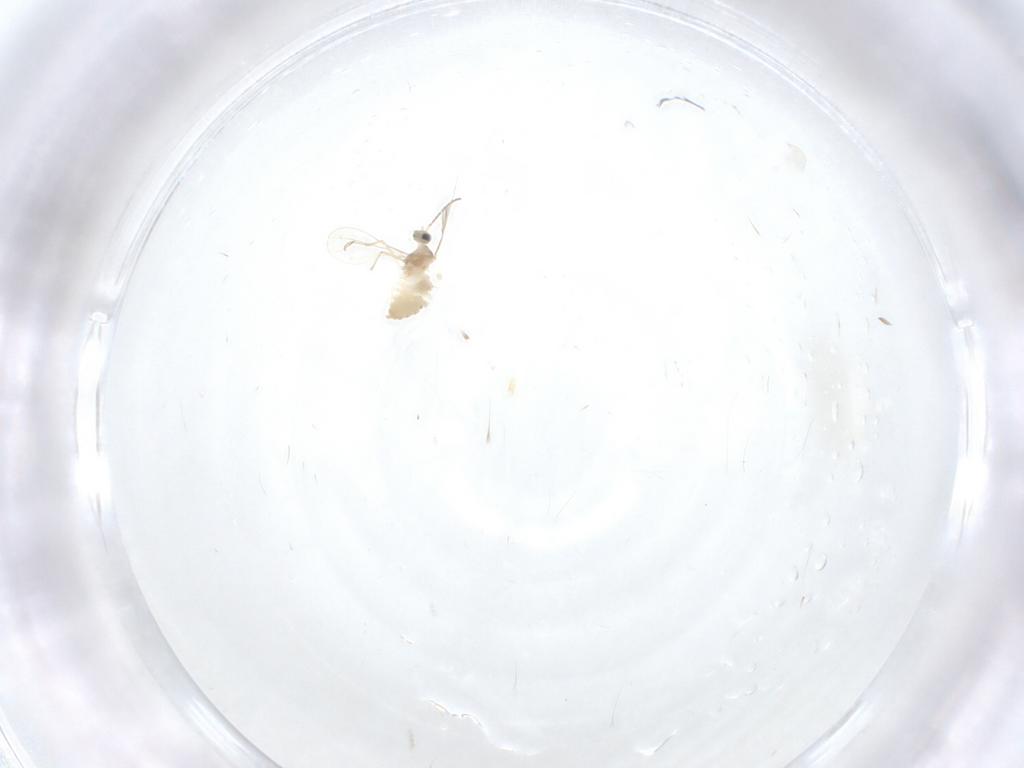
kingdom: Animalia
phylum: Arthropoda
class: Insecta
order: Diptera
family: Cecidomyiidae
